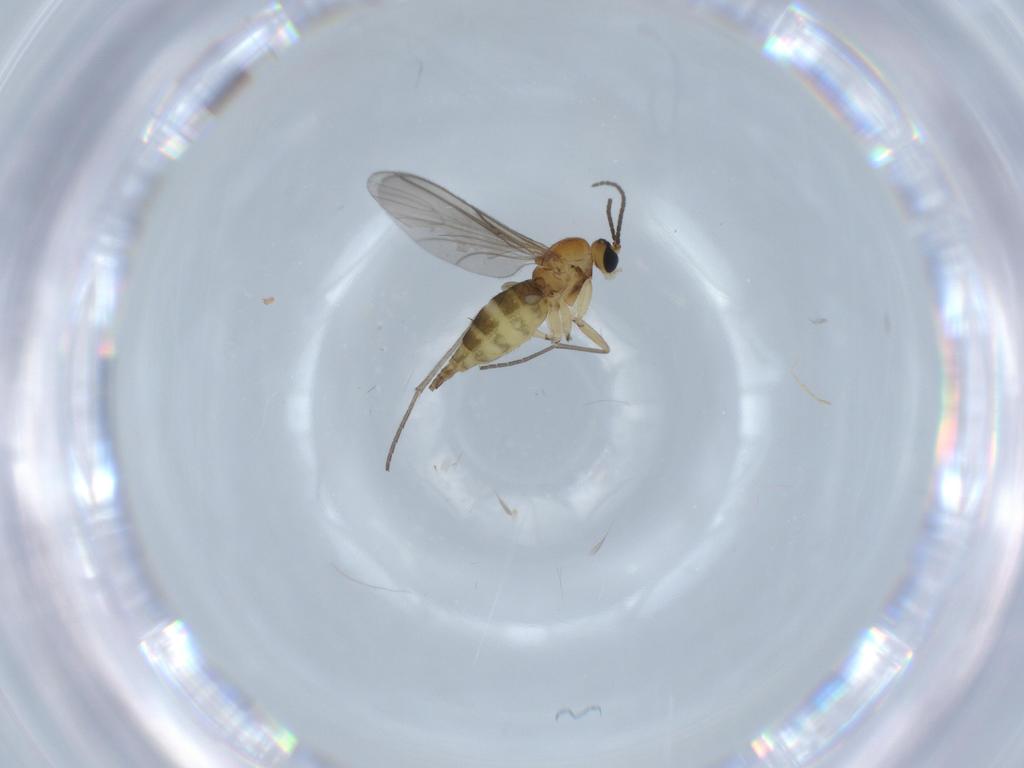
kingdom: Animalia
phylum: Arthropoda
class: Insecta
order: Diptera
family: Sciaridae
